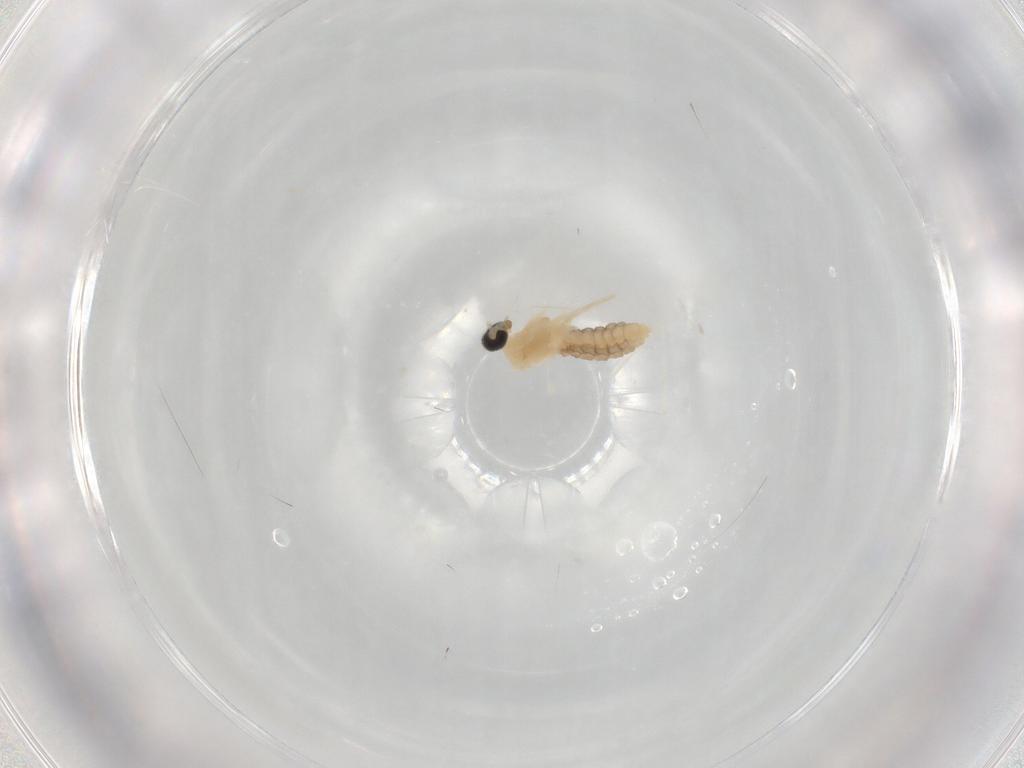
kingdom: Animalia
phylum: Arthropoda
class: Insecta
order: Diptera
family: Cecidomyiidae
